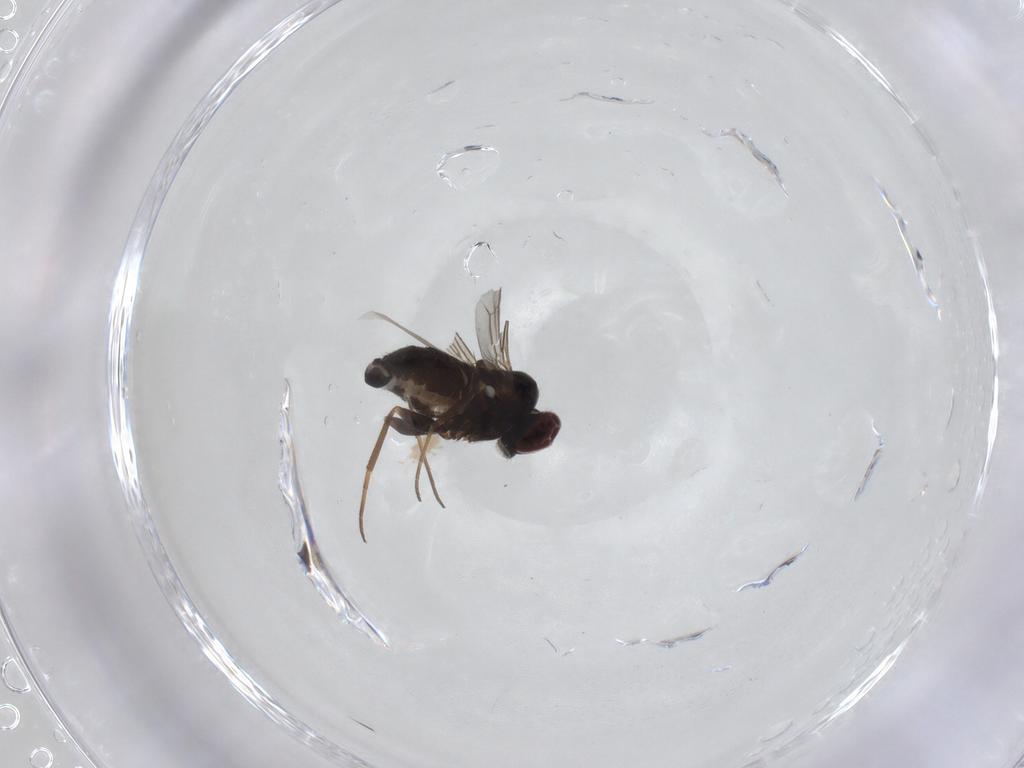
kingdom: Animalia
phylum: Arthropoda
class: Insecta
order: Diptera
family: Dolichopodidae
